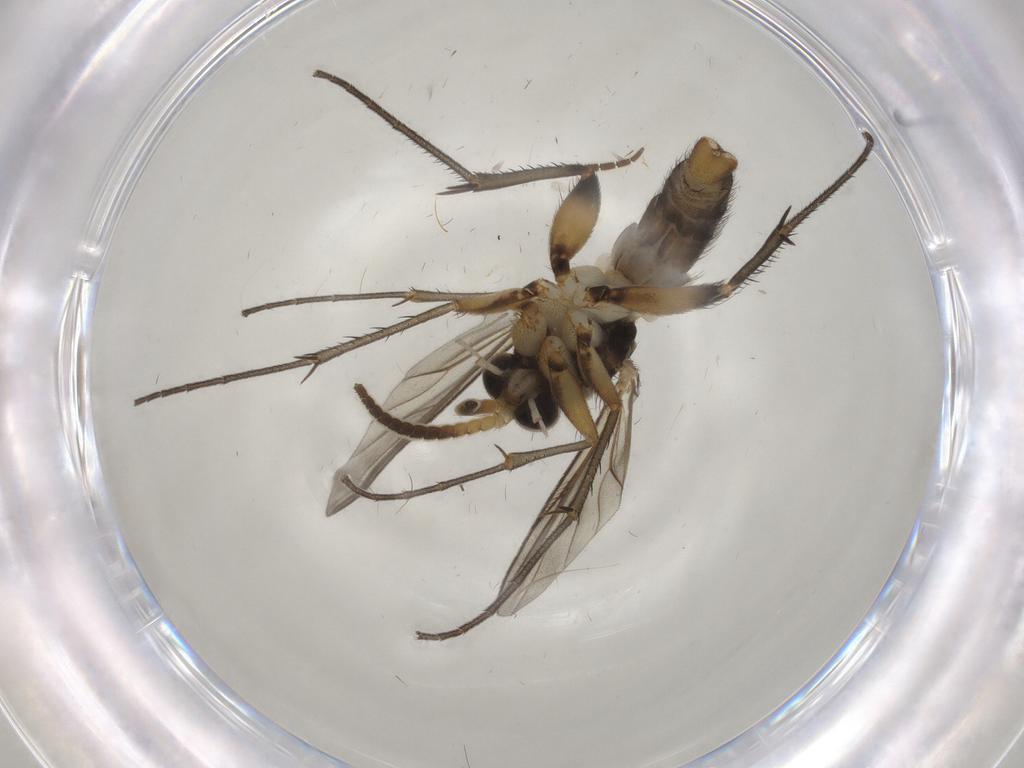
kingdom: Animalia
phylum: Arthropoda
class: Insecta
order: Diptera
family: Mycetophilidae
